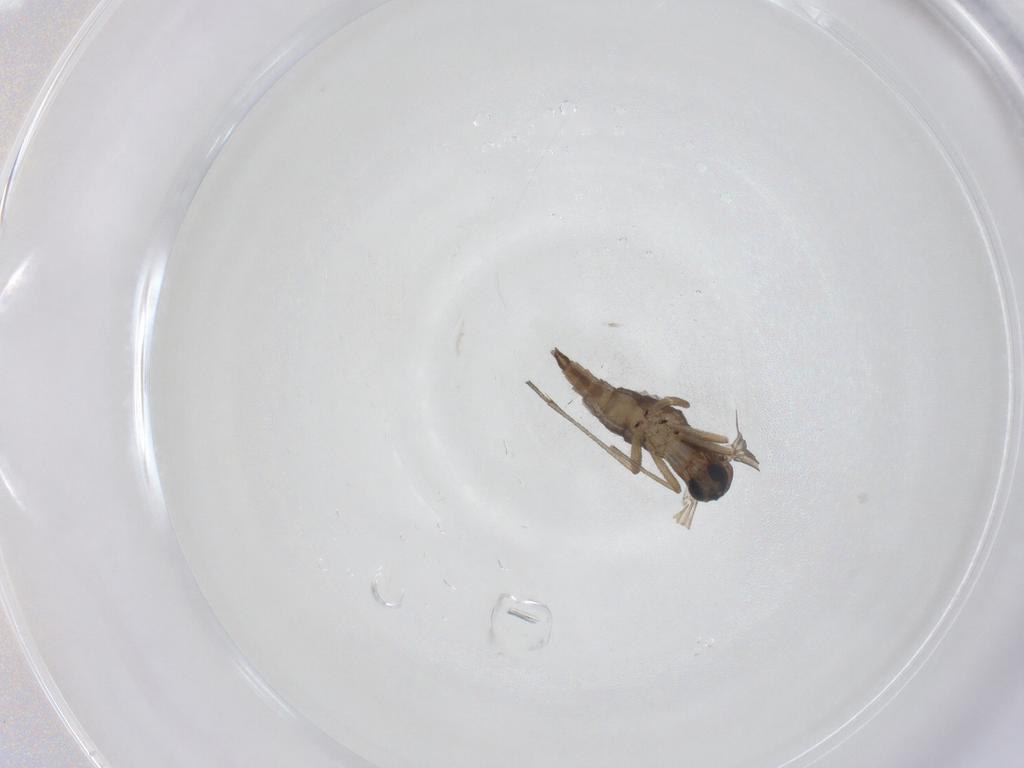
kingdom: Animalia
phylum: Arthropoda
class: Insecta
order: Diptera
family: Sciaridae
